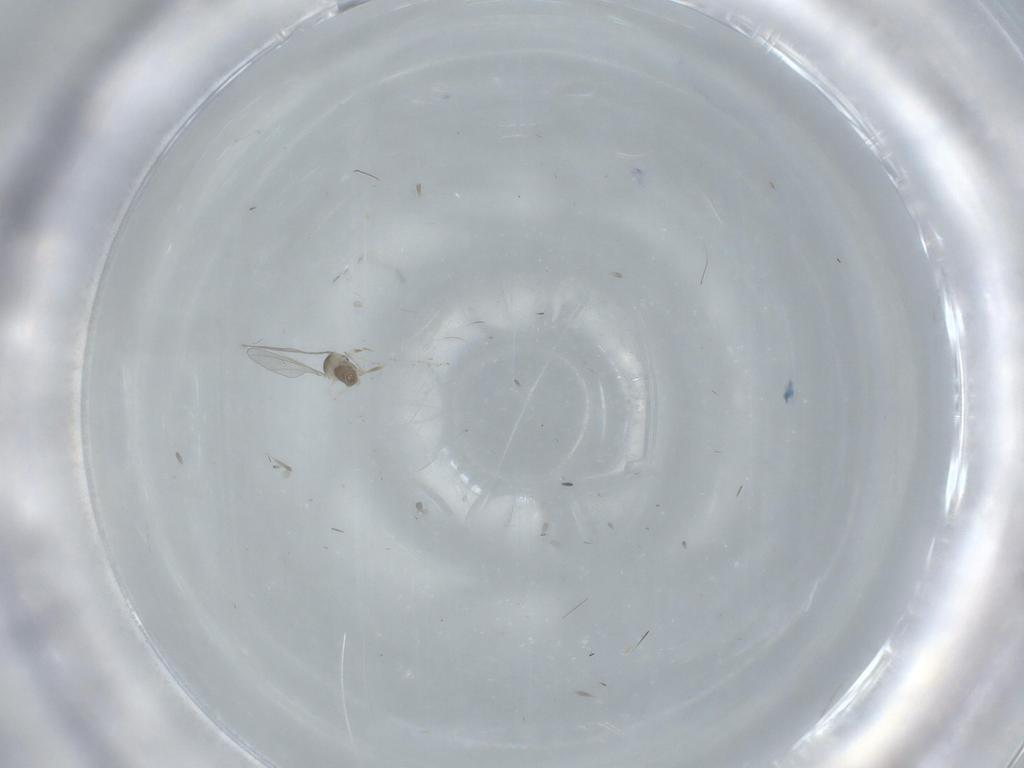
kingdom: Animalia
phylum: Arthropoda
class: Insecta
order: Diptera
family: Cecidomyiidae
